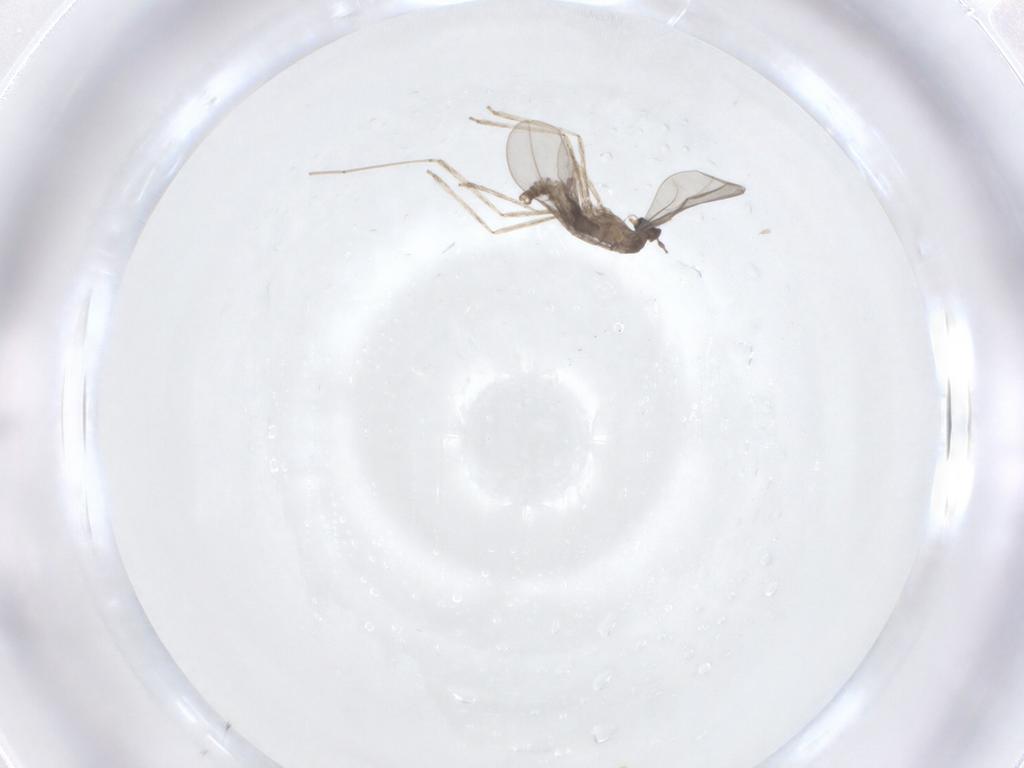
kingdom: Animalia
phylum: Arthropoda
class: Insecta
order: Diptera
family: Cecidomyiidae
